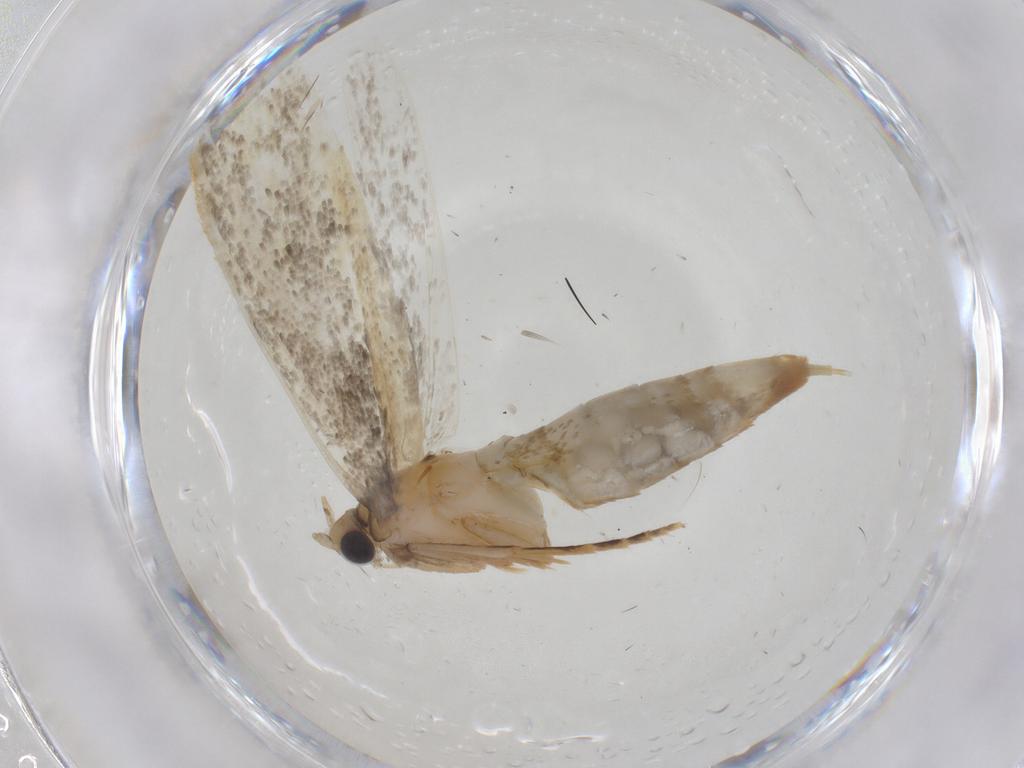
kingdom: Animalia
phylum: Arthropoda
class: Insecta
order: Lepidoptera
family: Tineidae
